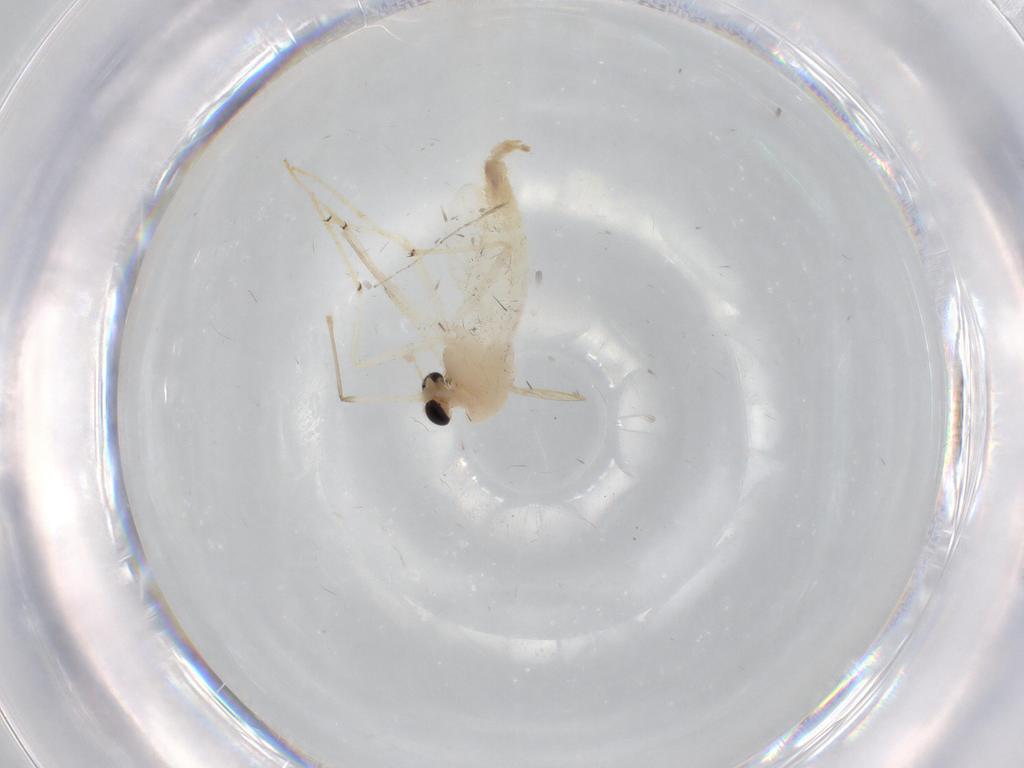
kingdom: Animalia
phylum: Arthropoda
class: Insecta
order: Diptera
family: Chironomidae
